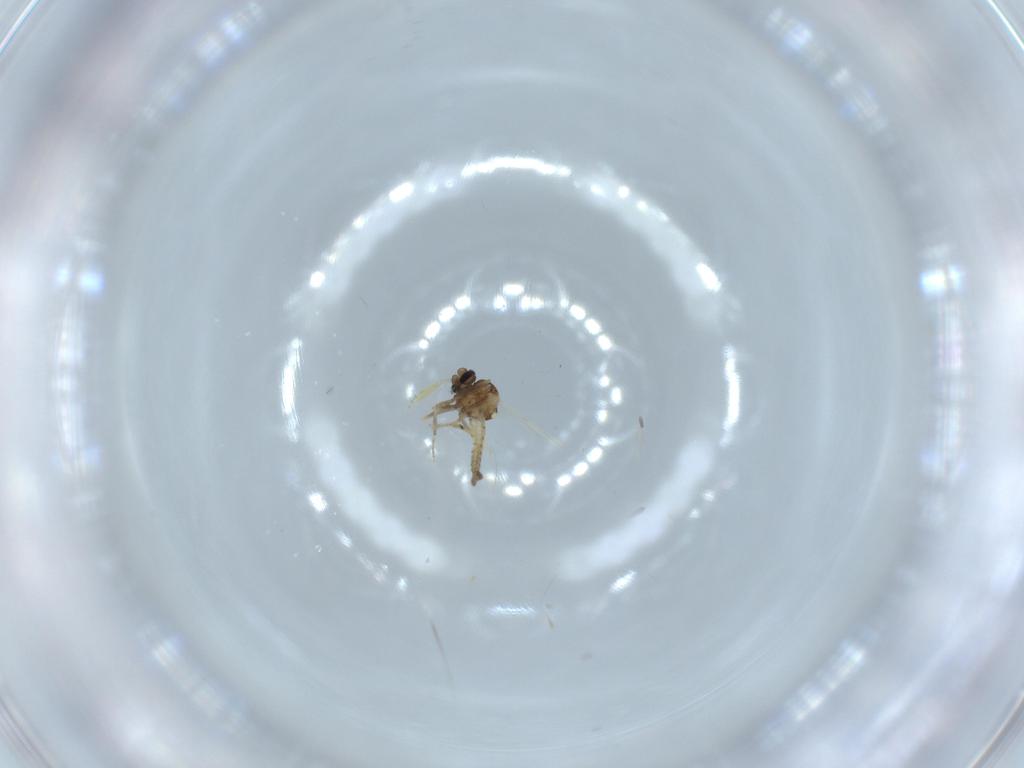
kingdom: Animalia
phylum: Arthropoda
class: Insecta
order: Diptera
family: Ceratopogonidae
